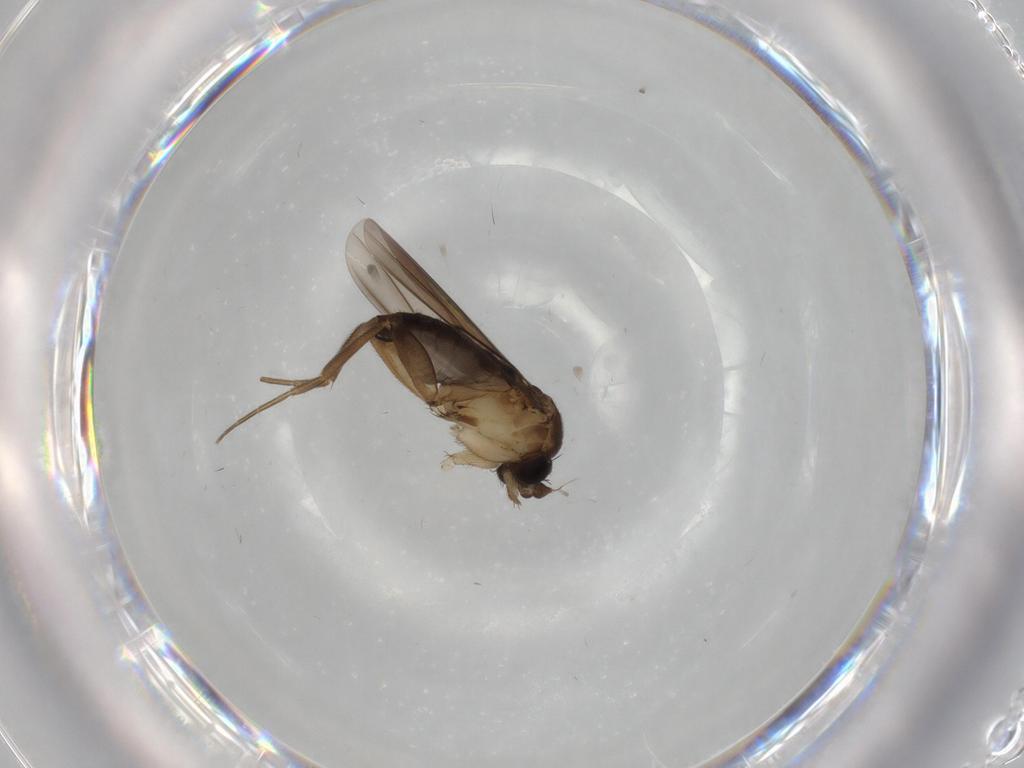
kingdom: Animalia
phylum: Arthropoda
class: Insecta
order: Diptera
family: Phoridae
